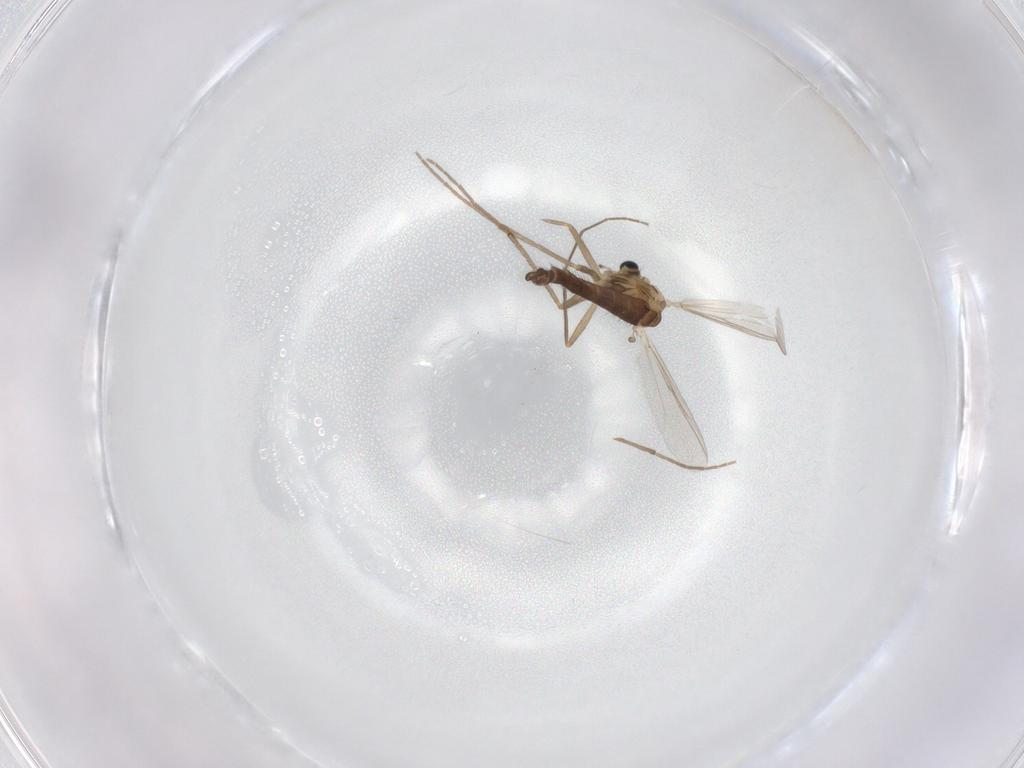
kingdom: Animalia
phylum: Arthropoda
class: Insecta
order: Diptera
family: Chironomidae
